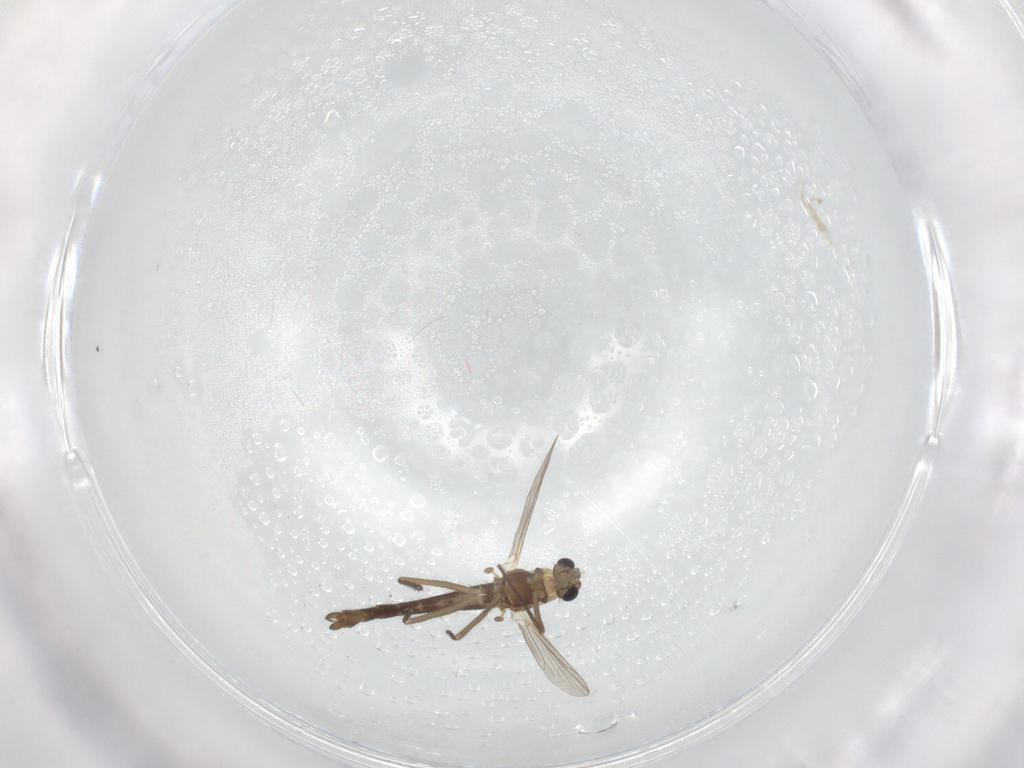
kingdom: Animalia
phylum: Arthropoda
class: Insecta
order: Diptera
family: Chironomidae
